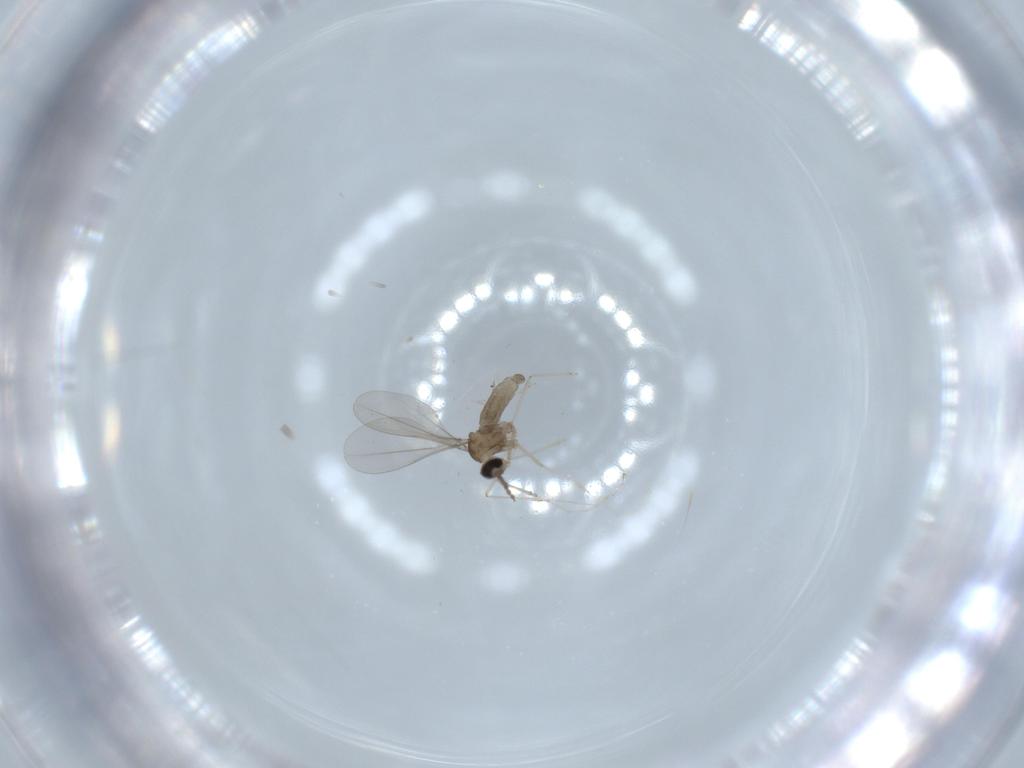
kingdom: Animalia
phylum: Arthropoda
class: Insecta
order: Diptera
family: Cecidomyiidae
